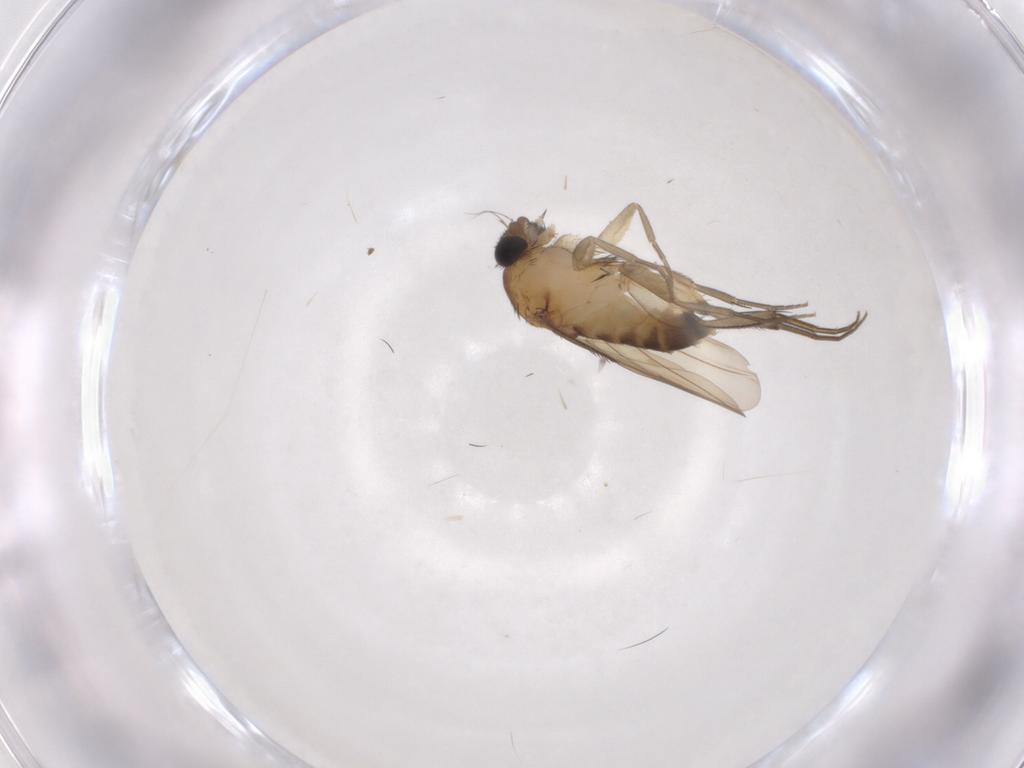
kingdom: Animalia
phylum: Arthropoda
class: Insecta
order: Diptera
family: Phoridae
